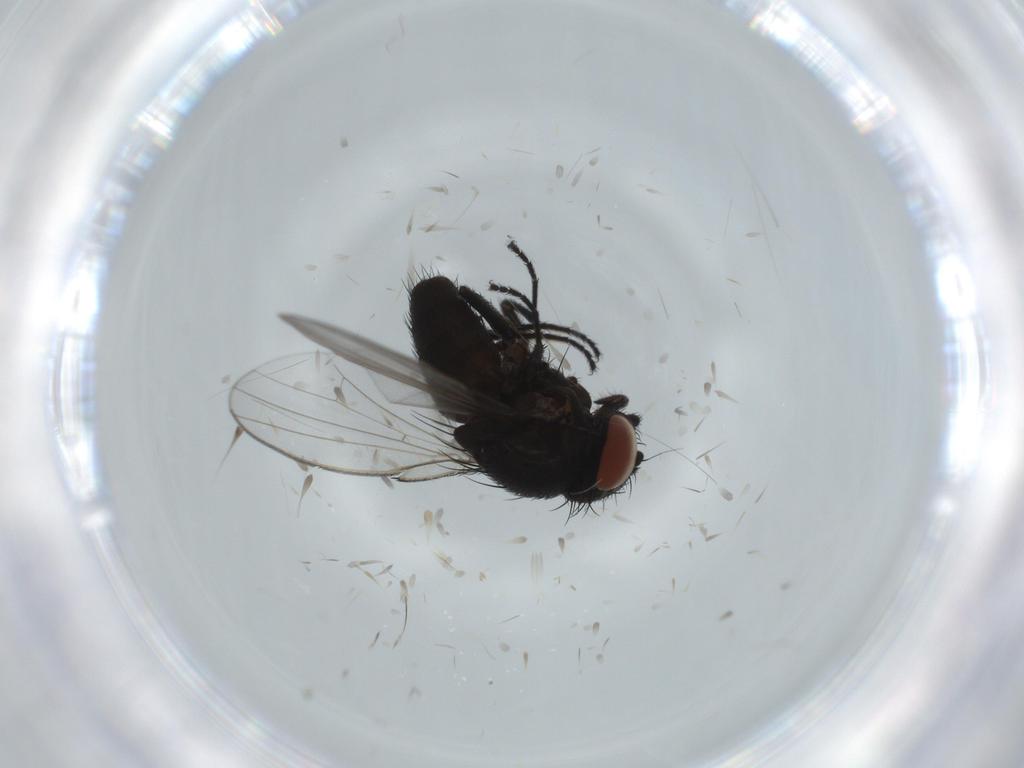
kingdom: Animalia
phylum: Arthropoda
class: Insecta
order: Diptera
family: Milichiidae
